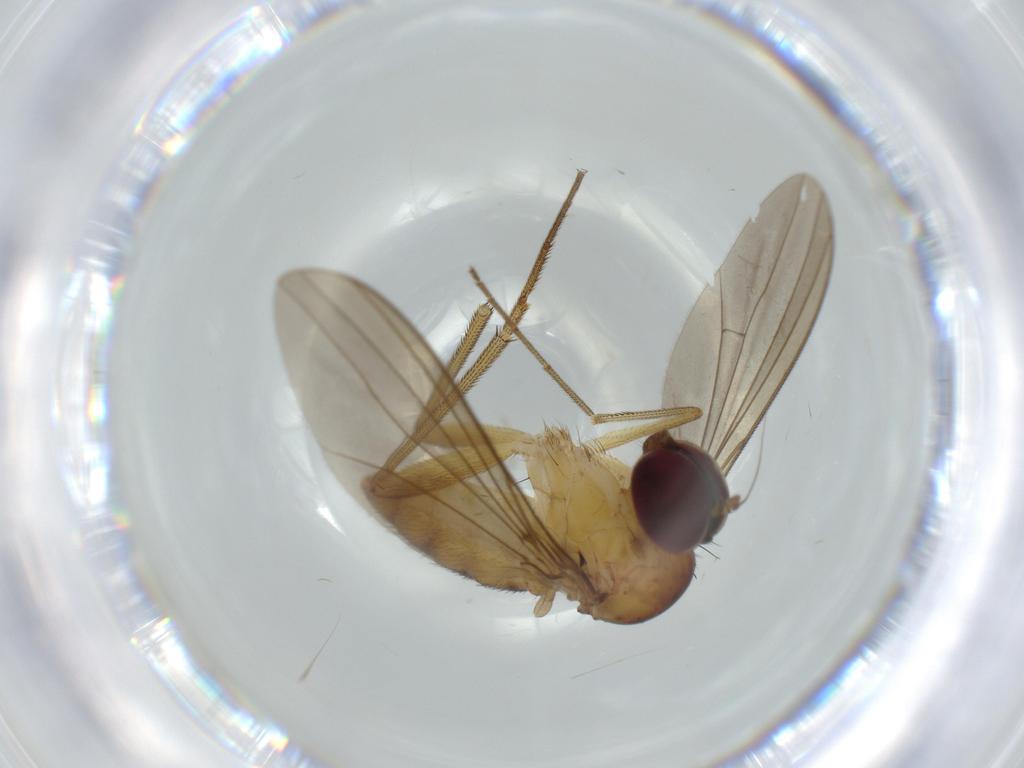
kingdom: Animalia
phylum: Arthropoda
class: Insecta
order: Diptera
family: Dolichopodidae
